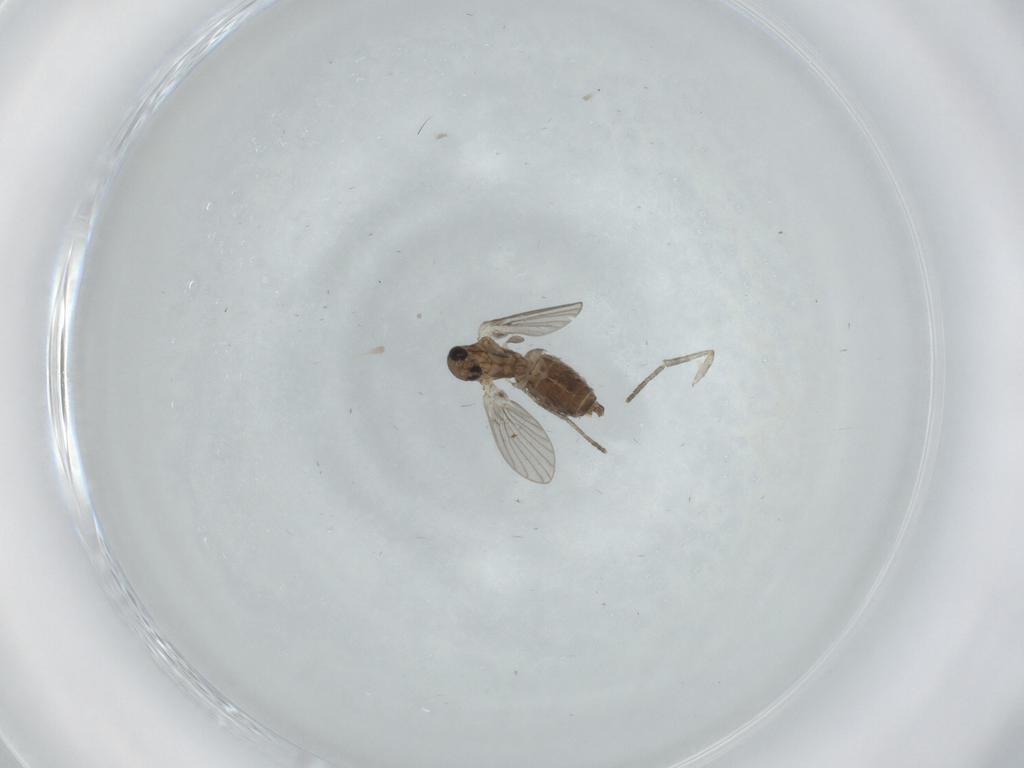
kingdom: Animalia
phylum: Arthropoda
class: Insecta
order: Diptera
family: Chironomidae
